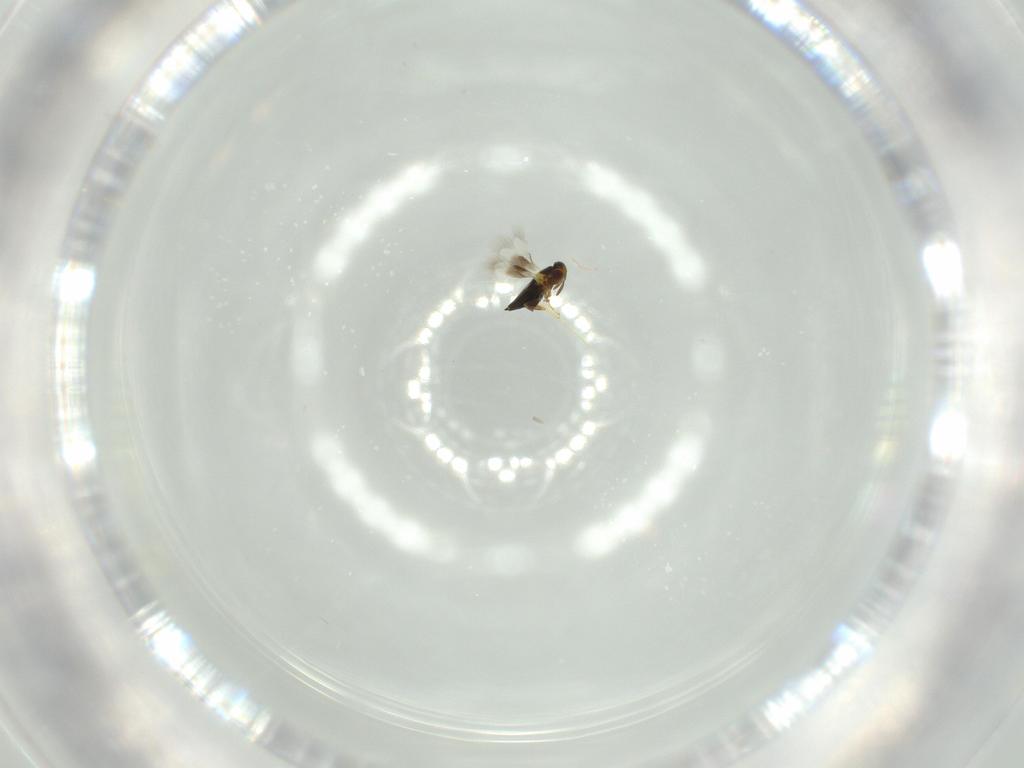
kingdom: Animalia
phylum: Arthropoda
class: Insecta
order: Hymenoptera
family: Signiphoridae
